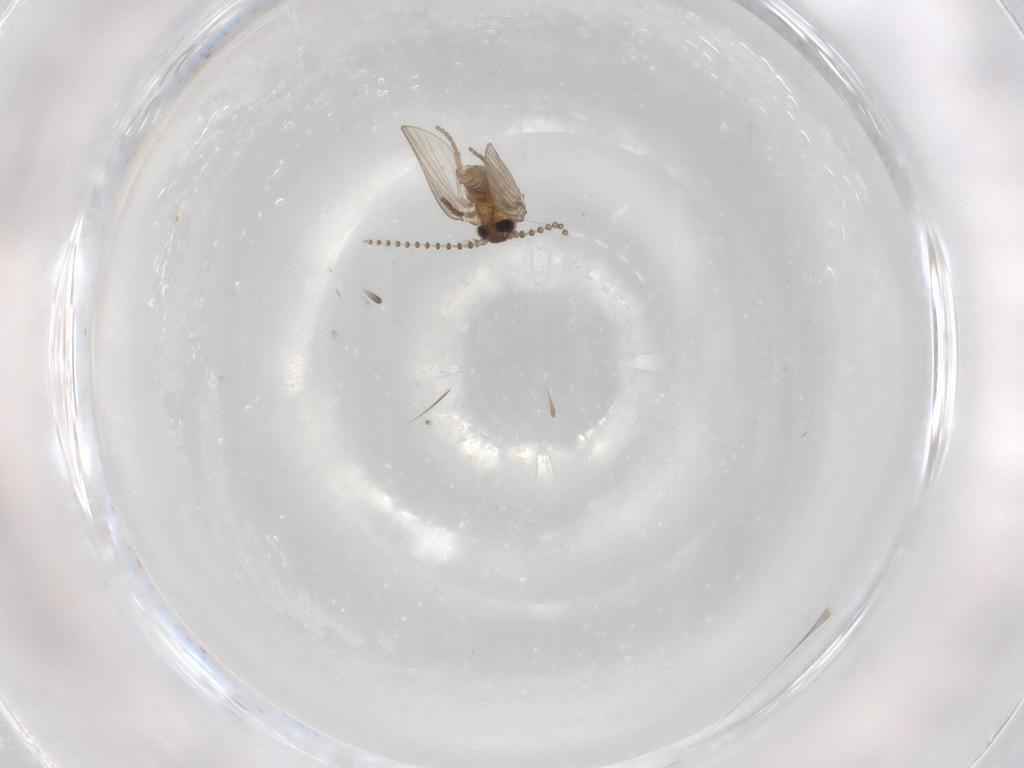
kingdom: Animalia
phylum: Arthropoda
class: Insecta
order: Diptera
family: Psychodidae
